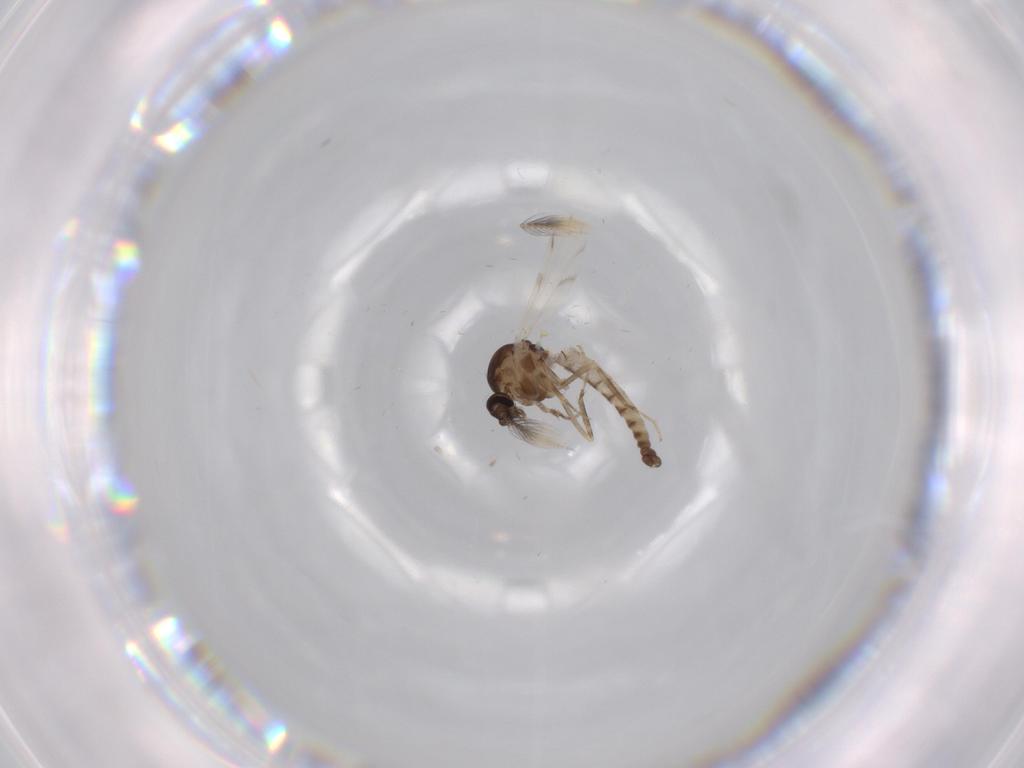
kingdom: Animalia
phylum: Arthropoda
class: Insecta
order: Diptera
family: Ceratopogonidae
